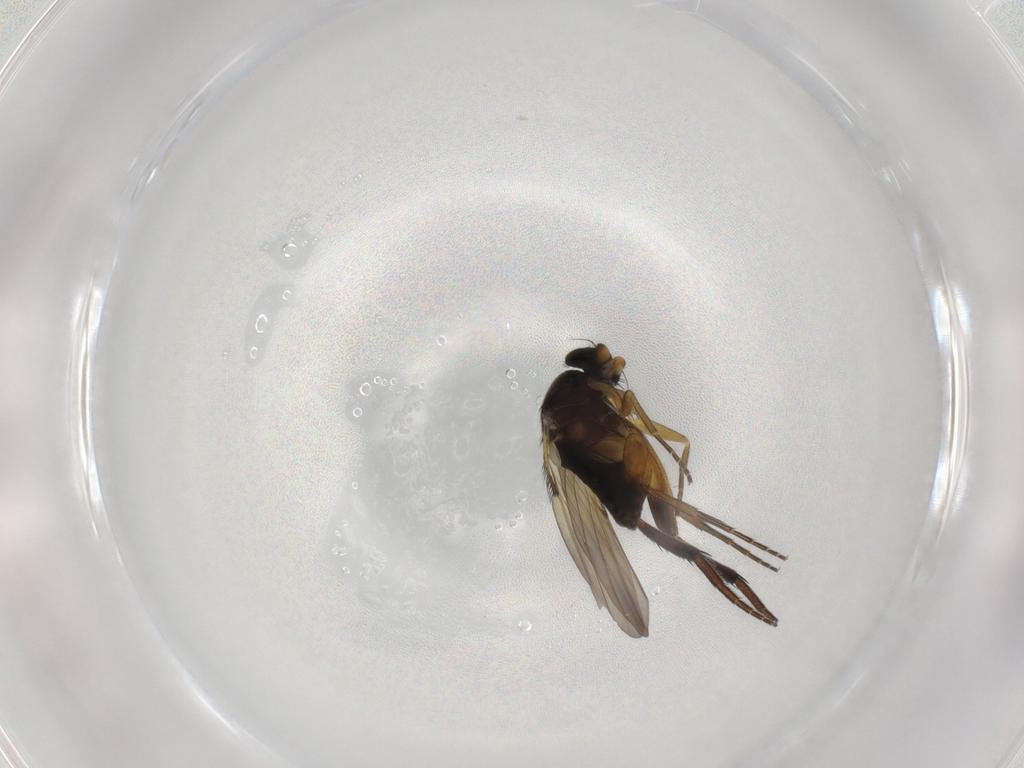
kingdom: Animalia
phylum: Arthropoda
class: Insecta
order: Diptera
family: Phoridae
